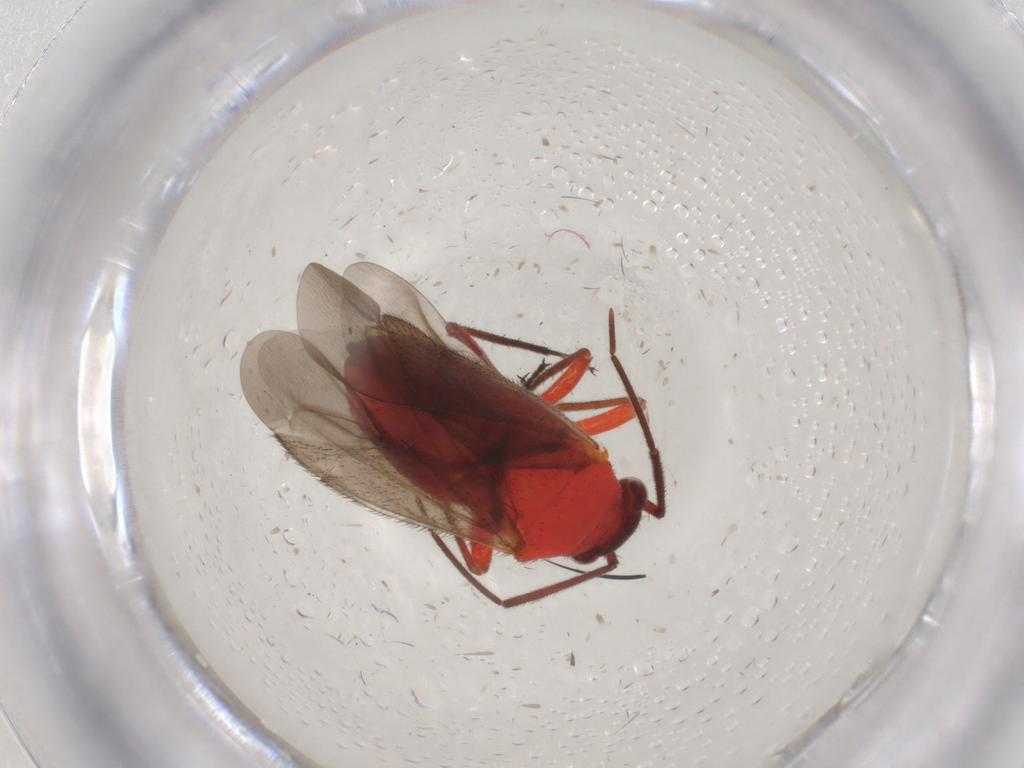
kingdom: Animalia
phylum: Arthropoda
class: Insecta
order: Hemiptera
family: Miridae
